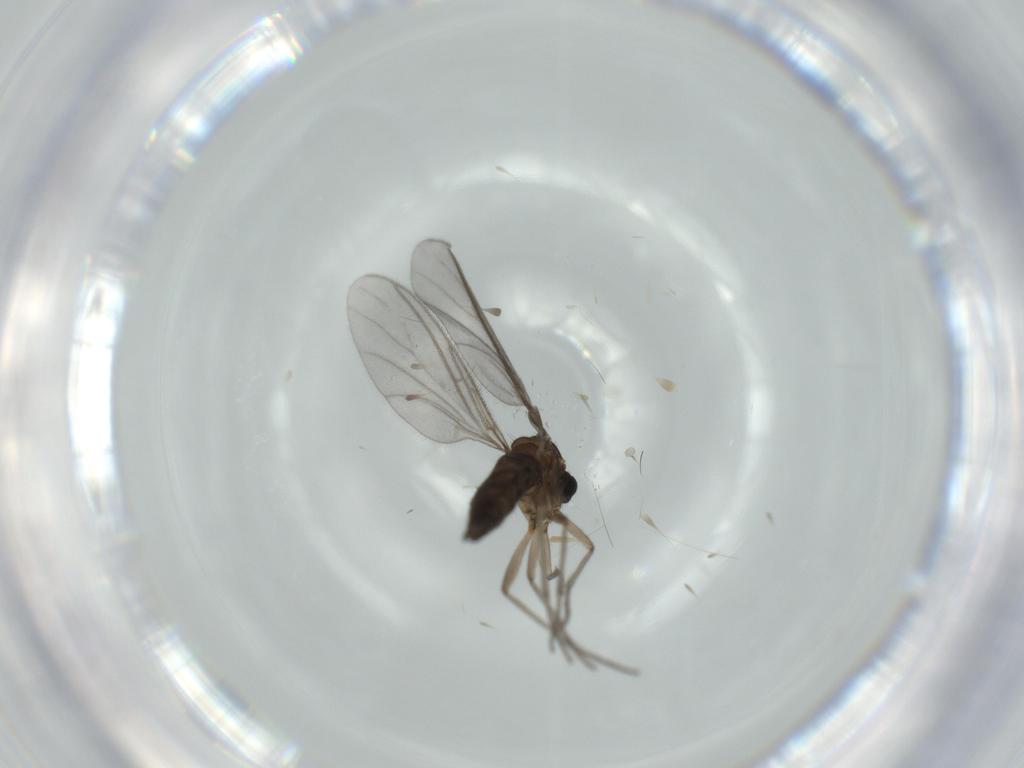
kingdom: Animalia
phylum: Arthropoda
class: Insecta
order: Diptera
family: Sciaridae
